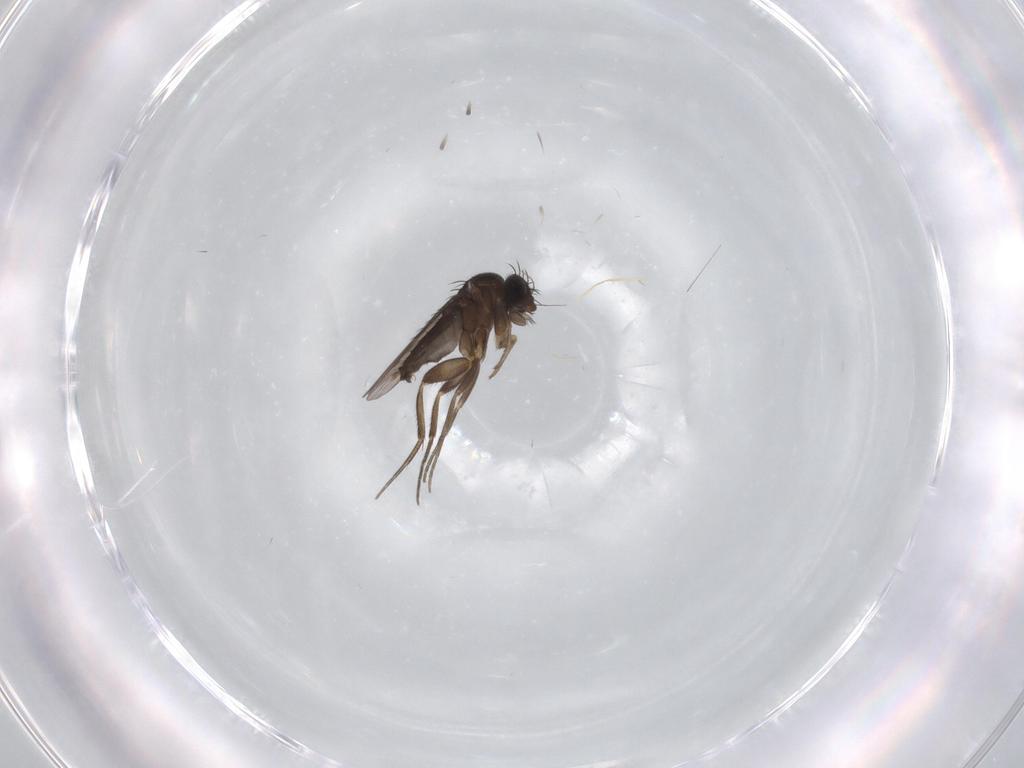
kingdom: Animalia
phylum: Arthropoda
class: Insecta
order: Diptera
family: Phoridae
